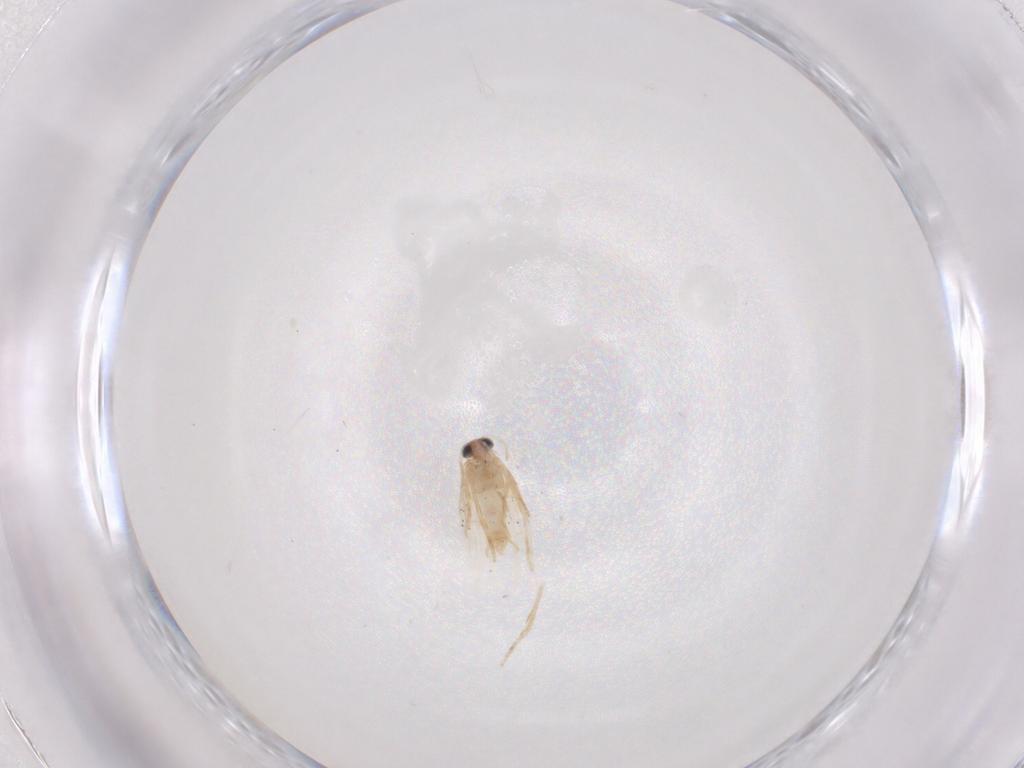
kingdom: Animalia
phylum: Arthropoda
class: Insecta
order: Lepidoptera
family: Nepticulidae
